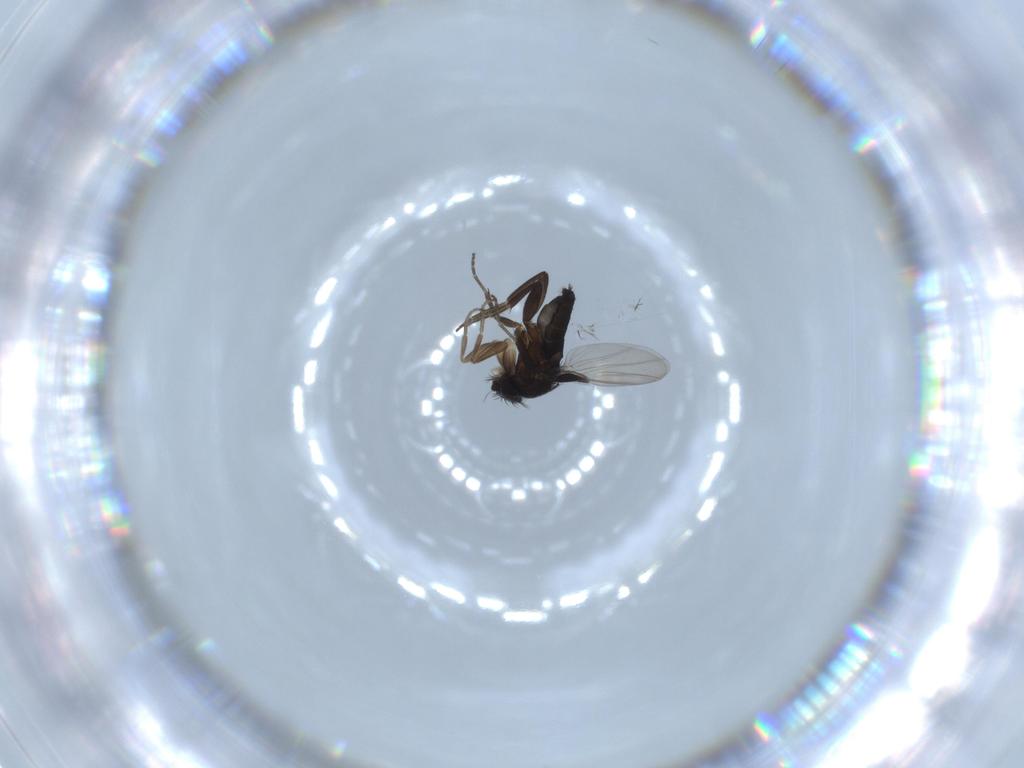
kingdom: Animalia
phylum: Arthropoda
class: Insecta
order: Diptera
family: Phoridae
